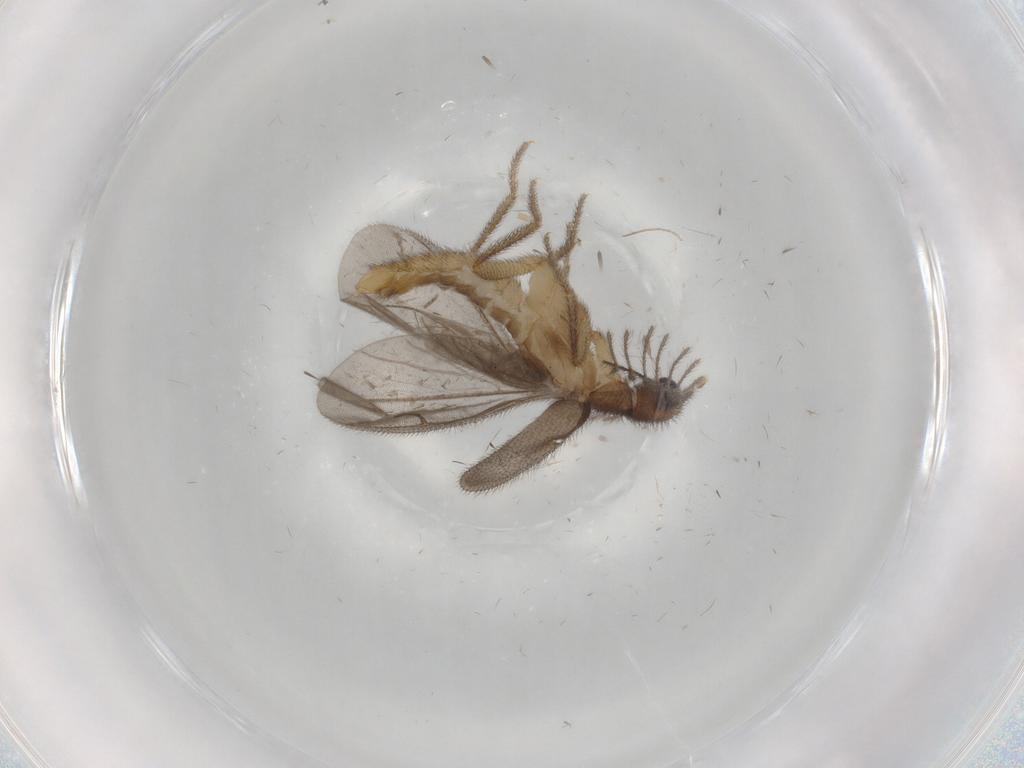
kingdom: Animalia
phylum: Arthropoda
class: Insecta
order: Coleoptera
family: Phengodidae
